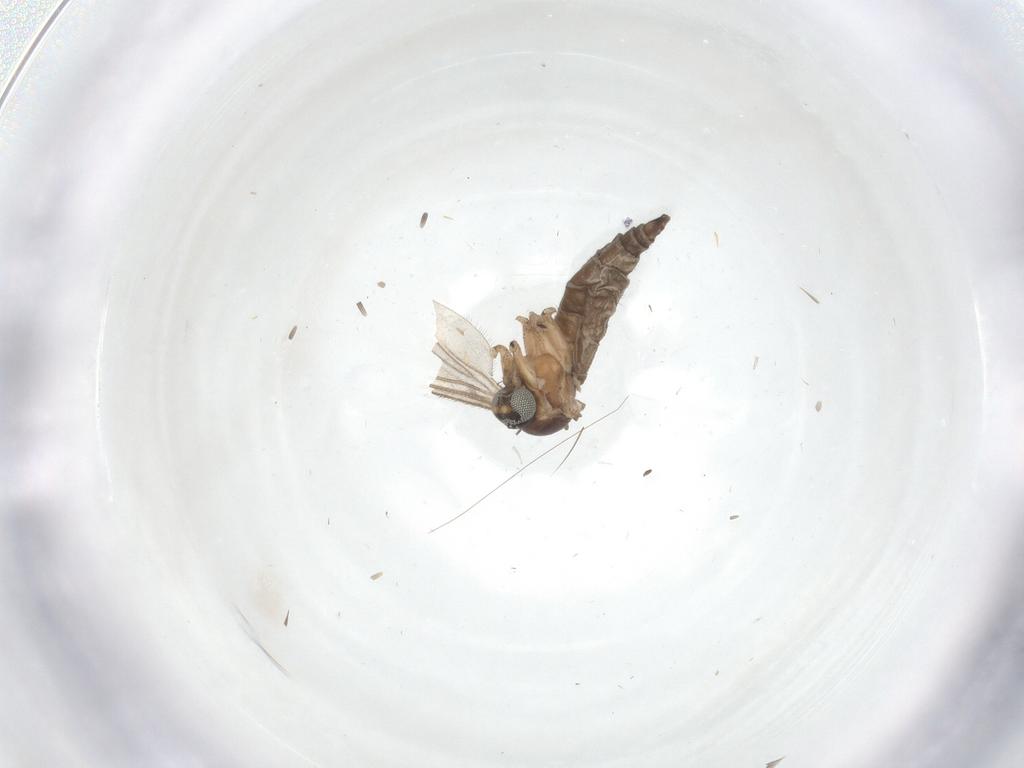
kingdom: Animalia
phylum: Arthropoda
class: Insecta
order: Diptera
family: Sciaridae
